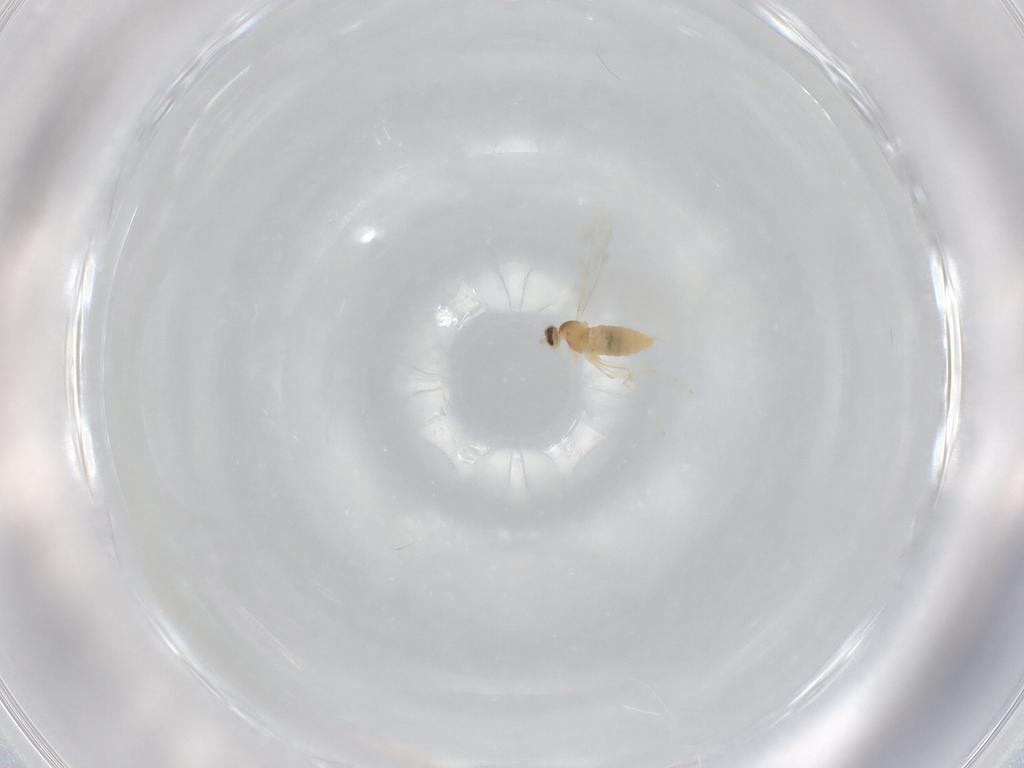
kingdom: Animalia
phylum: Arthropoda
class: Insecta
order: Diptera
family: Cecidomyiidae
